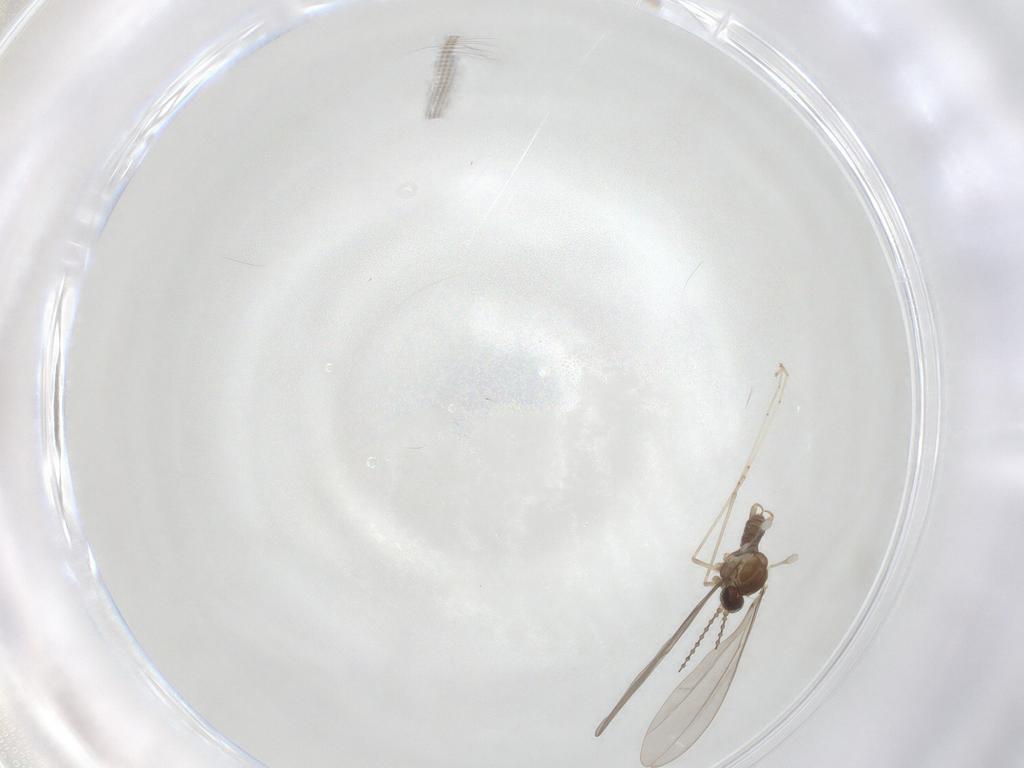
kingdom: Animalia
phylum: Arthropoda
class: Insecta
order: Diptera
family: Cecidomyiidae
